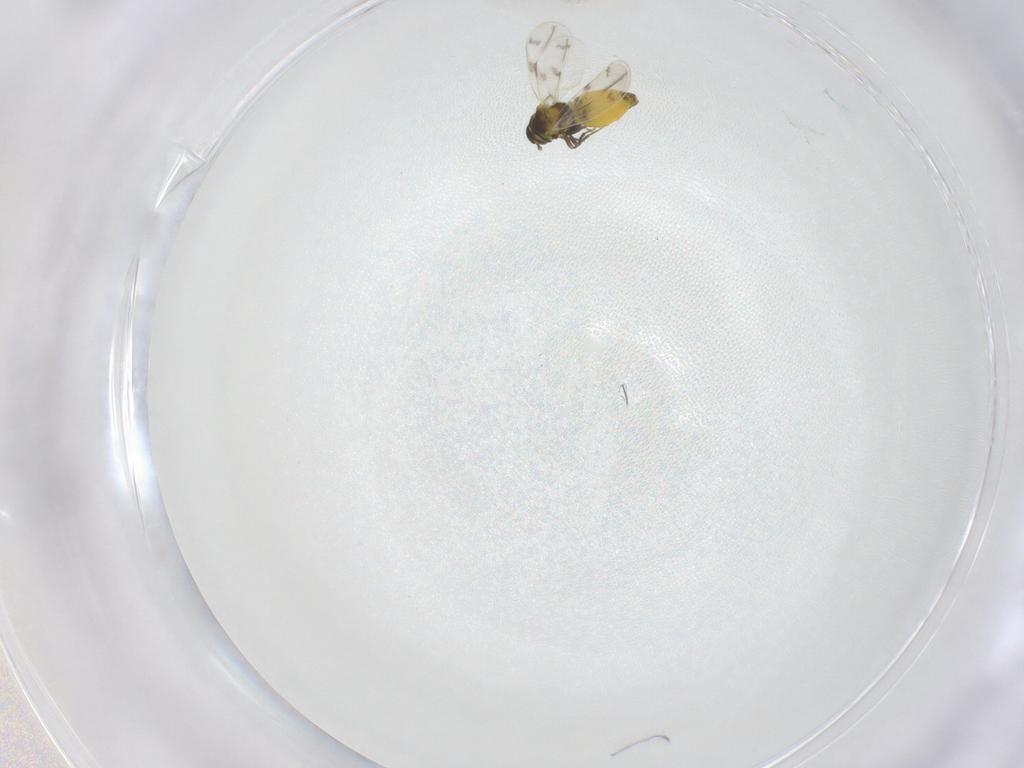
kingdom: Animalia
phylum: Arthropoda
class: Insecta
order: Hemiptera
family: Aleyrodidae
